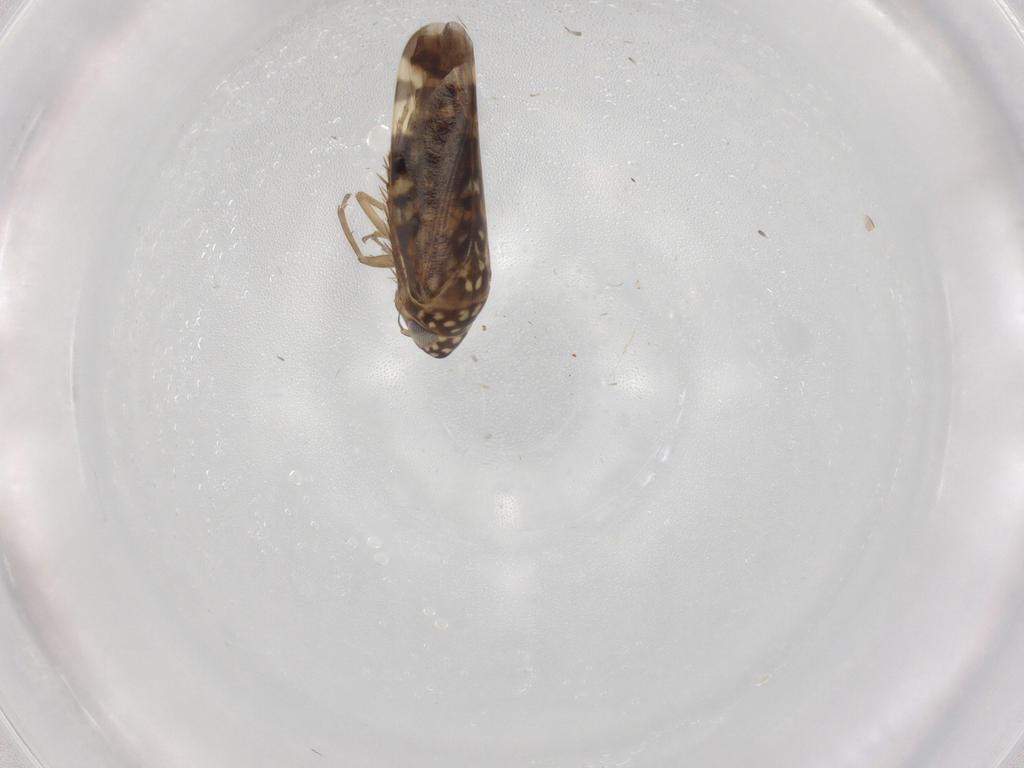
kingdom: Animalia
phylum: Arthropoda
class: Insecta
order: Hemiptera
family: Cicadellidae
